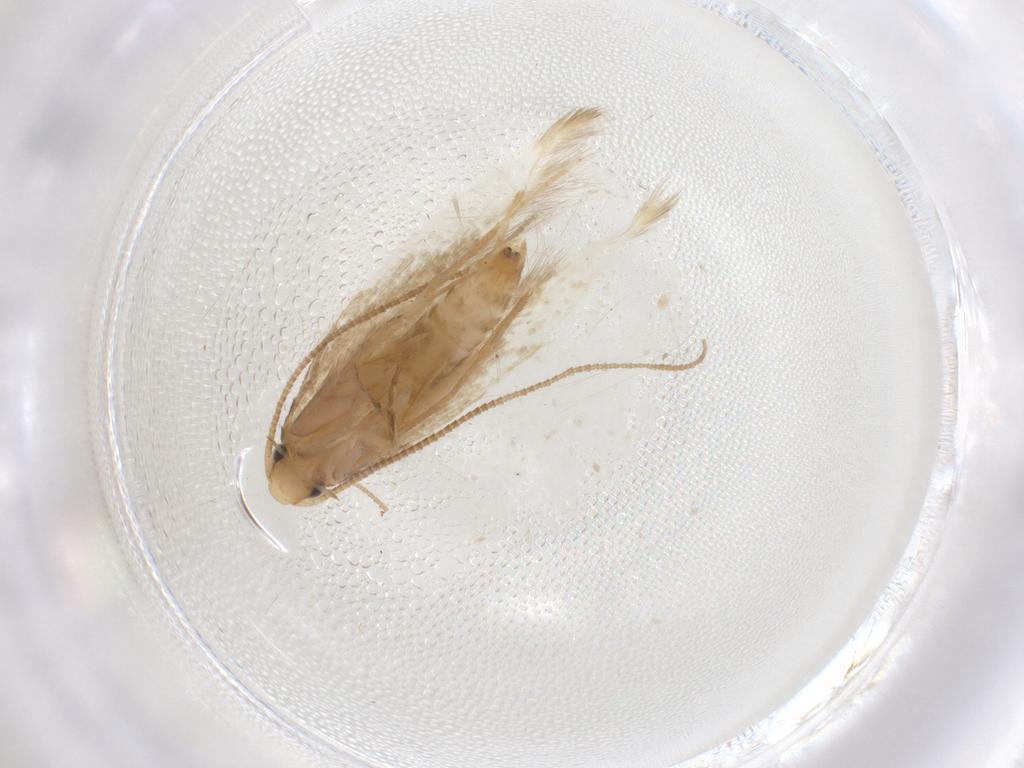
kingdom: Animalia
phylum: Arthropoda
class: Insecta
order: Lepidoptera
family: Tineidae
